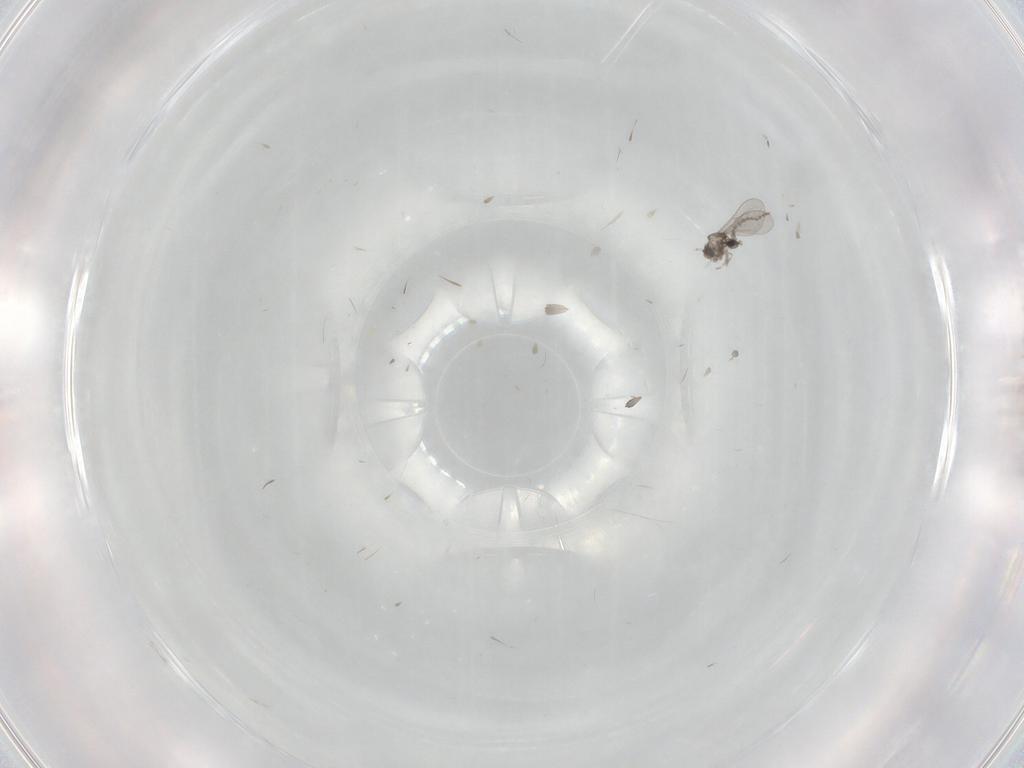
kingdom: Animalia
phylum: Arthropoda
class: Insecta
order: Diptera
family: Cecidomyiidae
